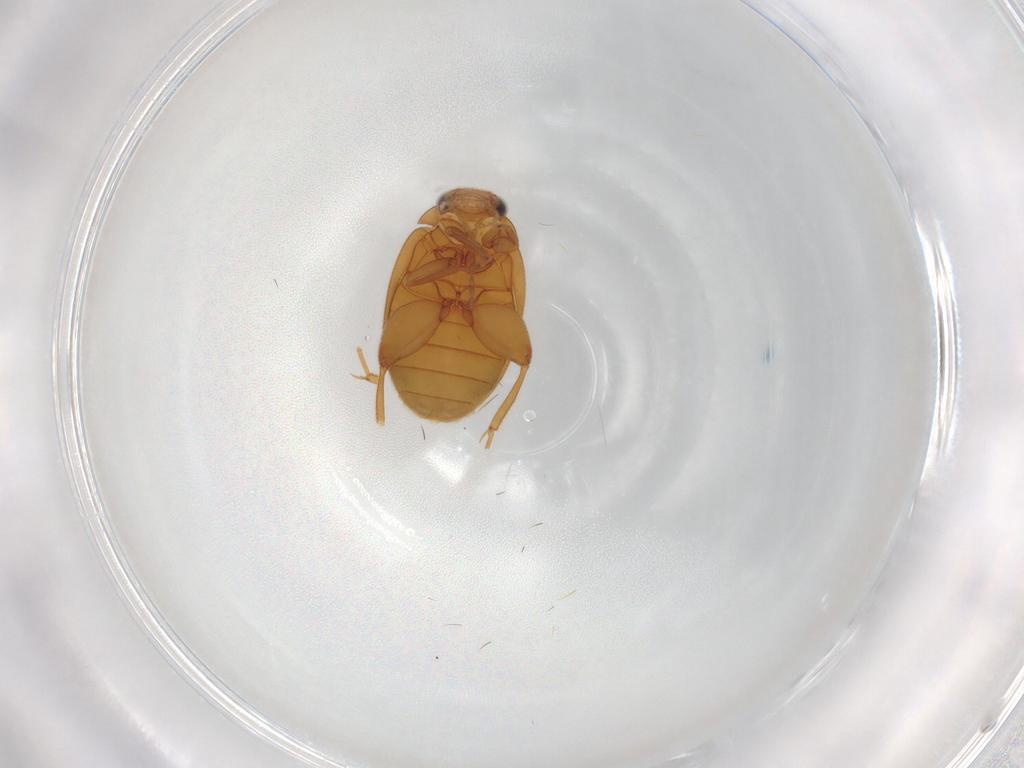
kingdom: Animalia
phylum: Arthropoda
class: Insecta
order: Coleoptera
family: Scirtidae
